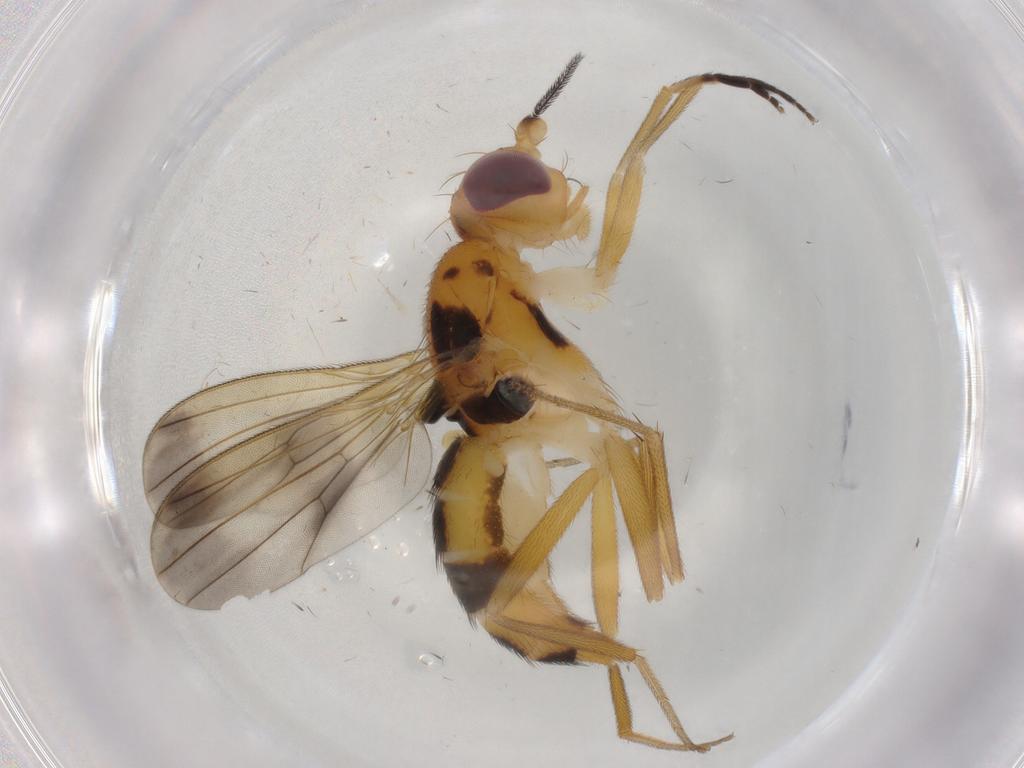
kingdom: Animalia
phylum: Arthropoda
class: Insecta
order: Diptera
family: Clusiidae
